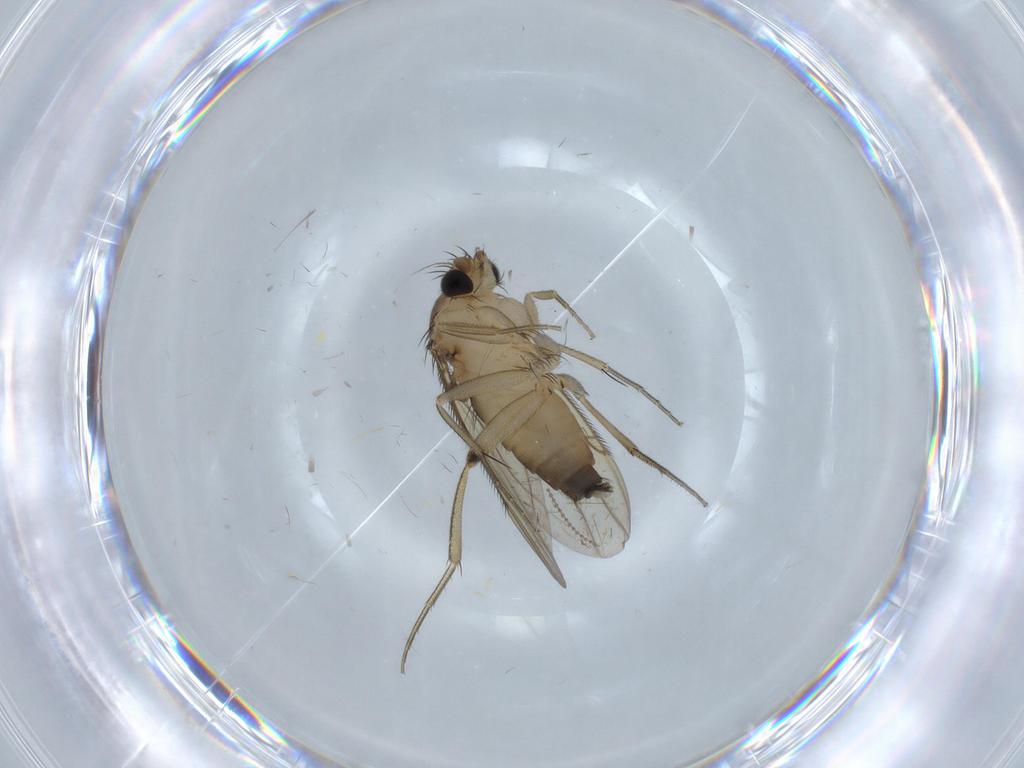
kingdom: Animalia
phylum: Arthropoda
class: Insecta
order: Diptera
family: Phoridae
